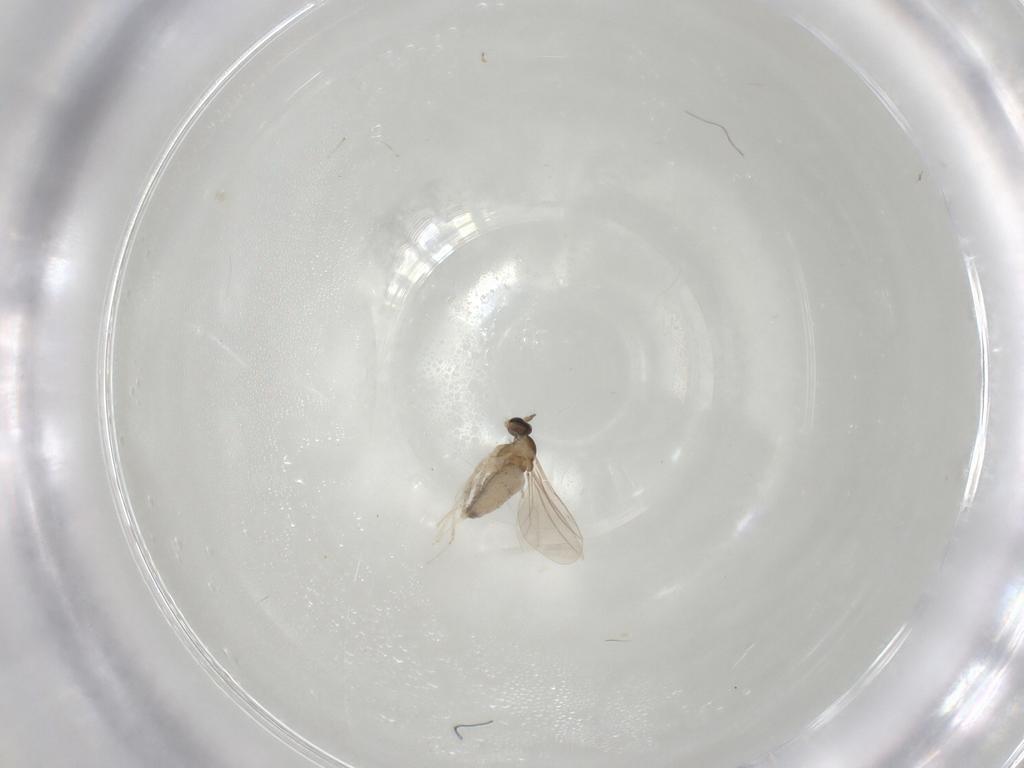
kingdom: Animalia
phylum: Arthropoda
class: Insecta
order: Diptera
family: Cecidomyiidae
